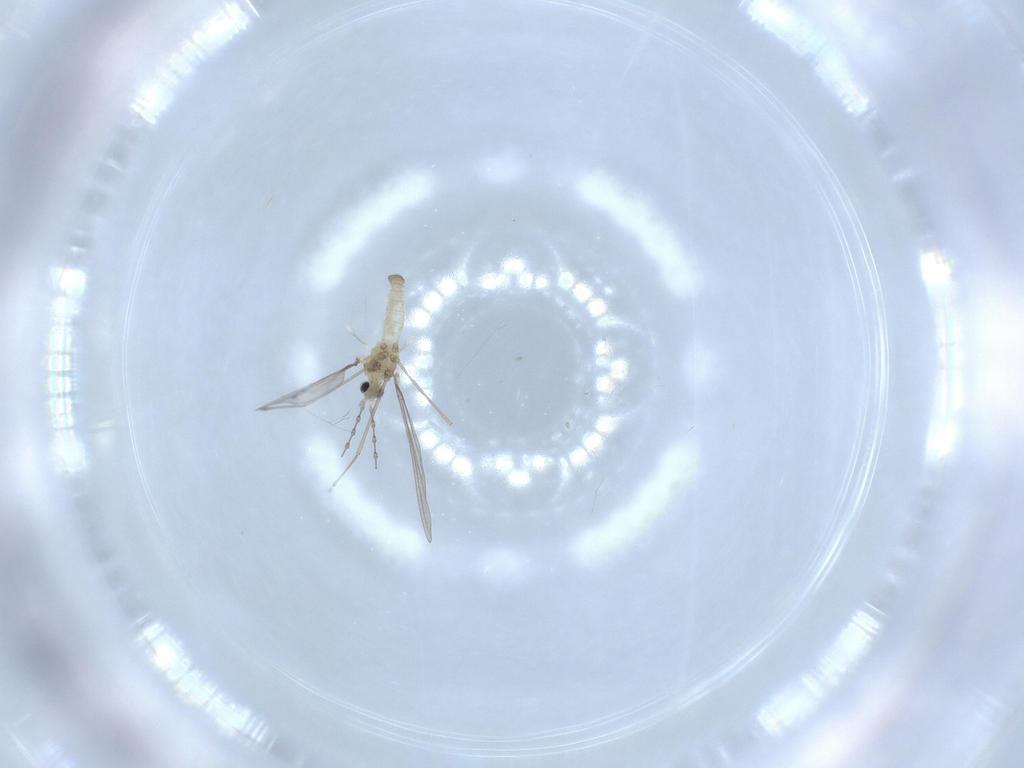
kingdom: Animalia
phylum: Arthropoda
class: Insecta
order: Diptera
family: Cecidomyiidae
